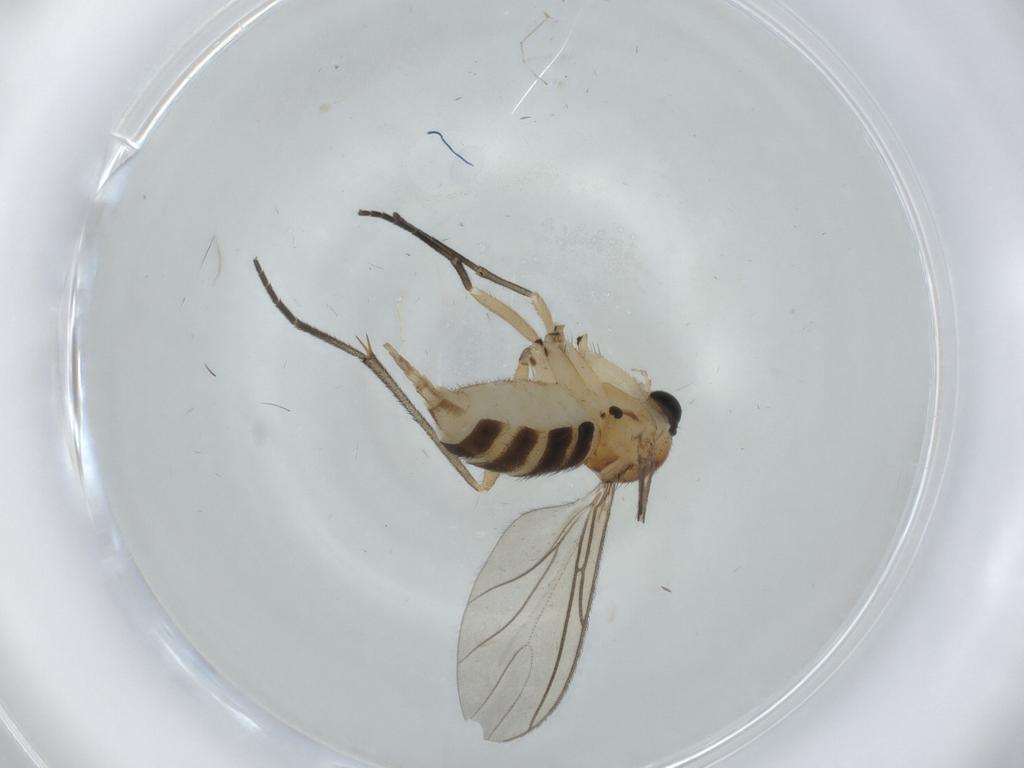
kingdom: Animalia
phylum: Arthropoda
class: Insecta
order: Diptera
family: Sciaridae
